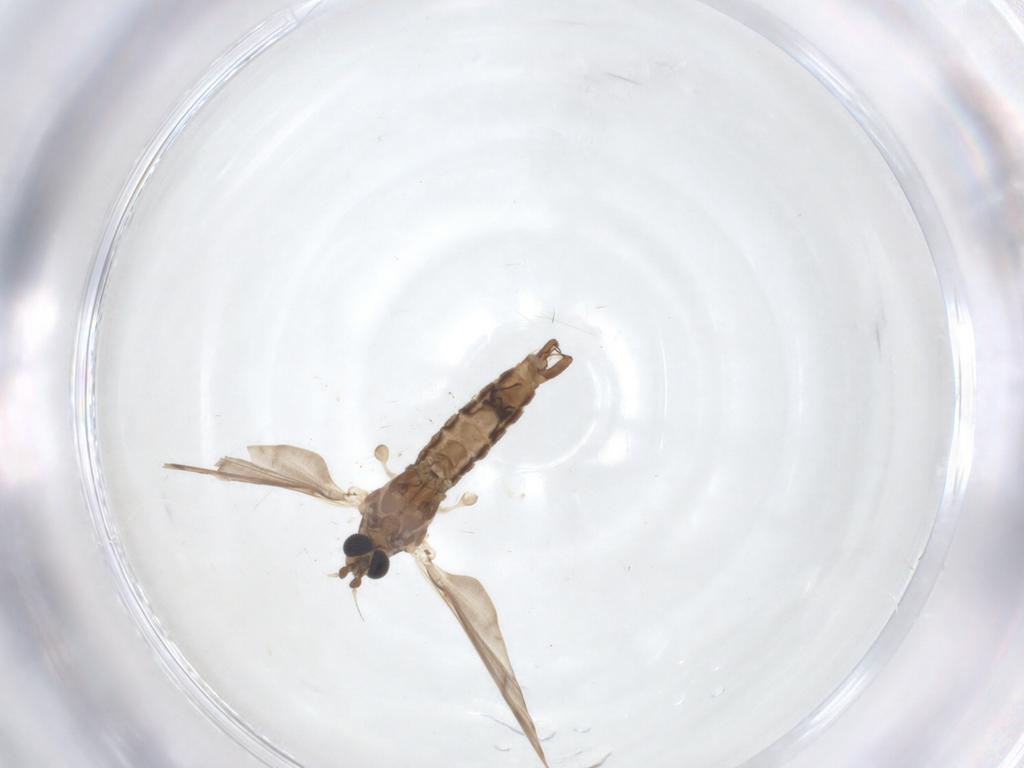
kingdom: Animalia
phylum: Arthropoda
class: Insecta
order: Diptera
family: Limoniidae
